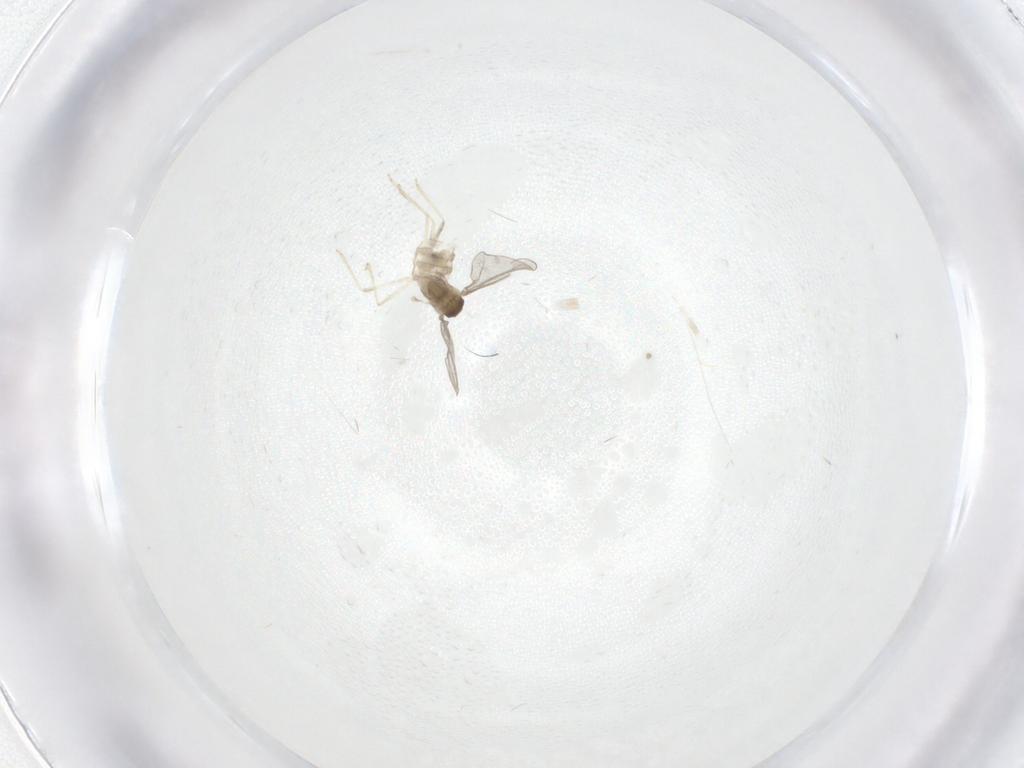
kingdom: Animalia
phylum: Arthropoda
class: Insecta
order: Diptera
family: Cecidomyiidae
